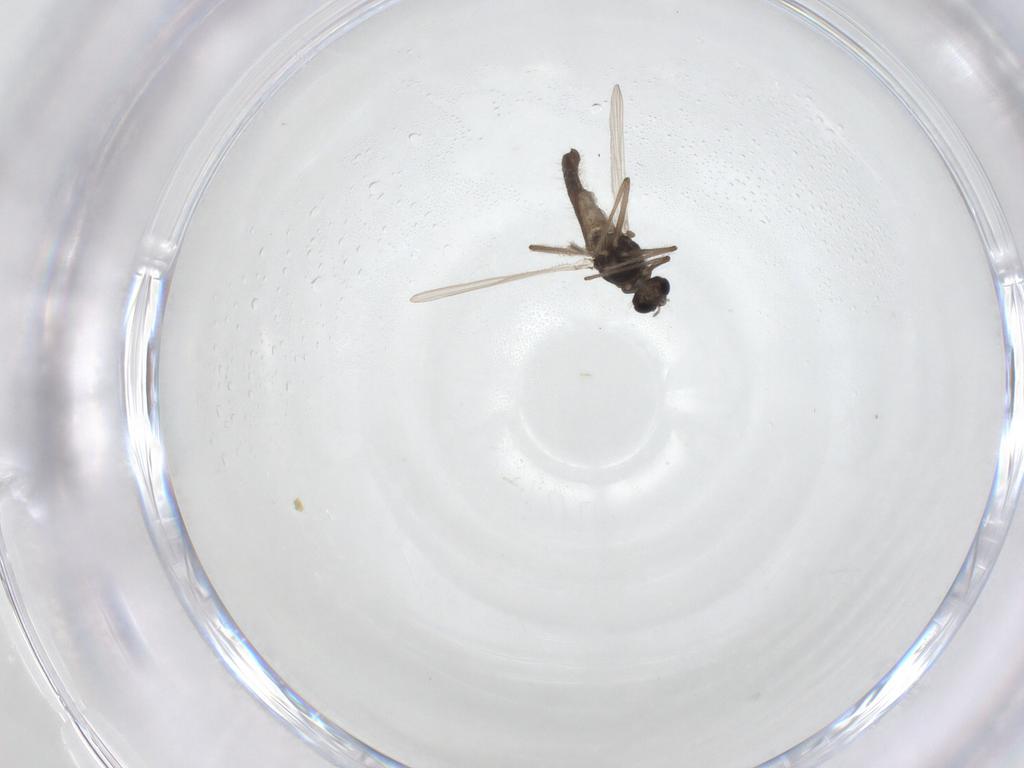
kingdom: Animalia
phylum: Arthropoda
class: Insecta
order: Diptera
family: Chironomidae
